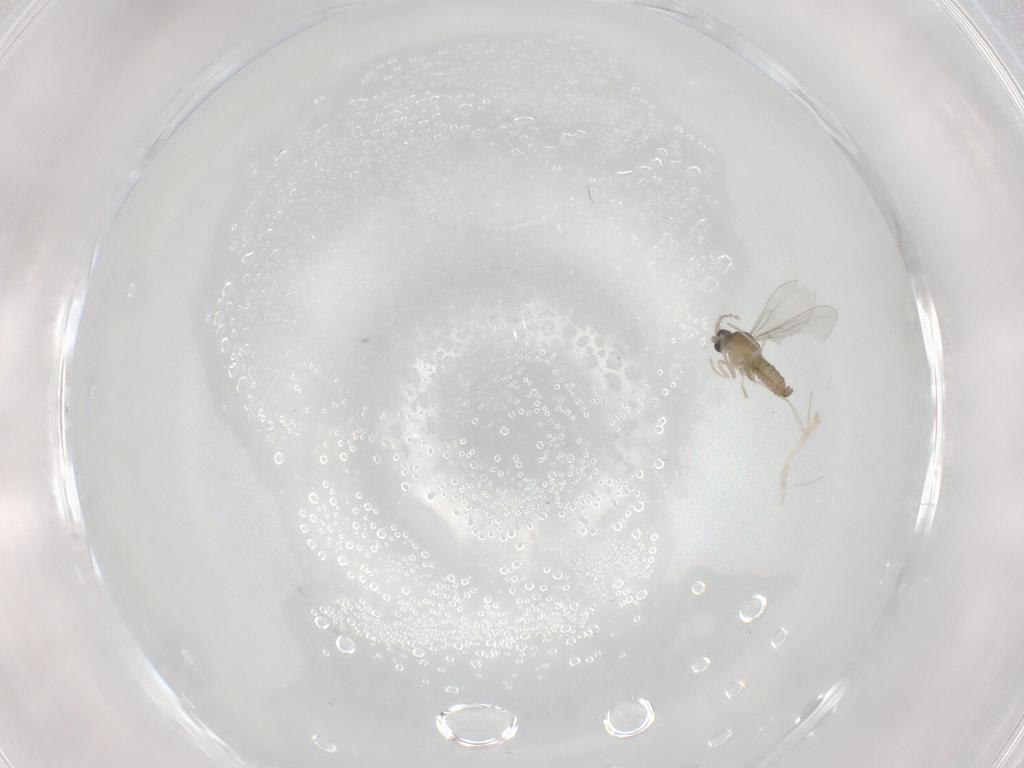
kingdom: Animalia
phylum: Arthropoda
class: Insecta
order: Diptera
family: Cecidomyiidae
